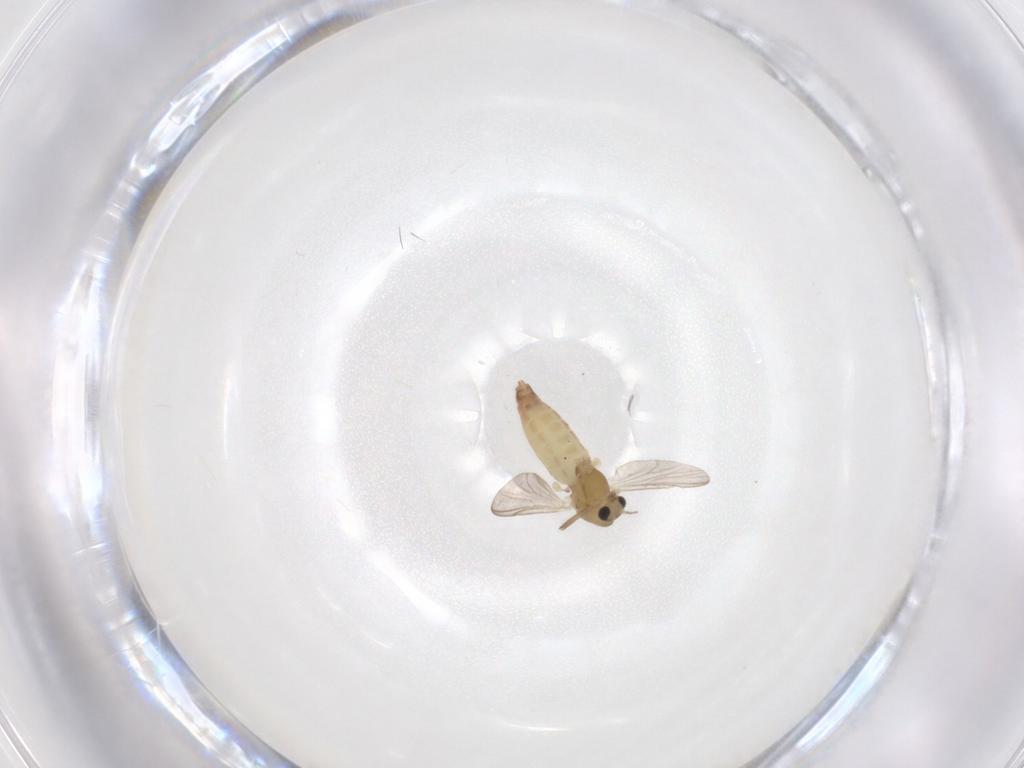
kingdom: Animalia
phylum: Arthropoda
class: Insecta
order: Diptera
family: Chironomidae
